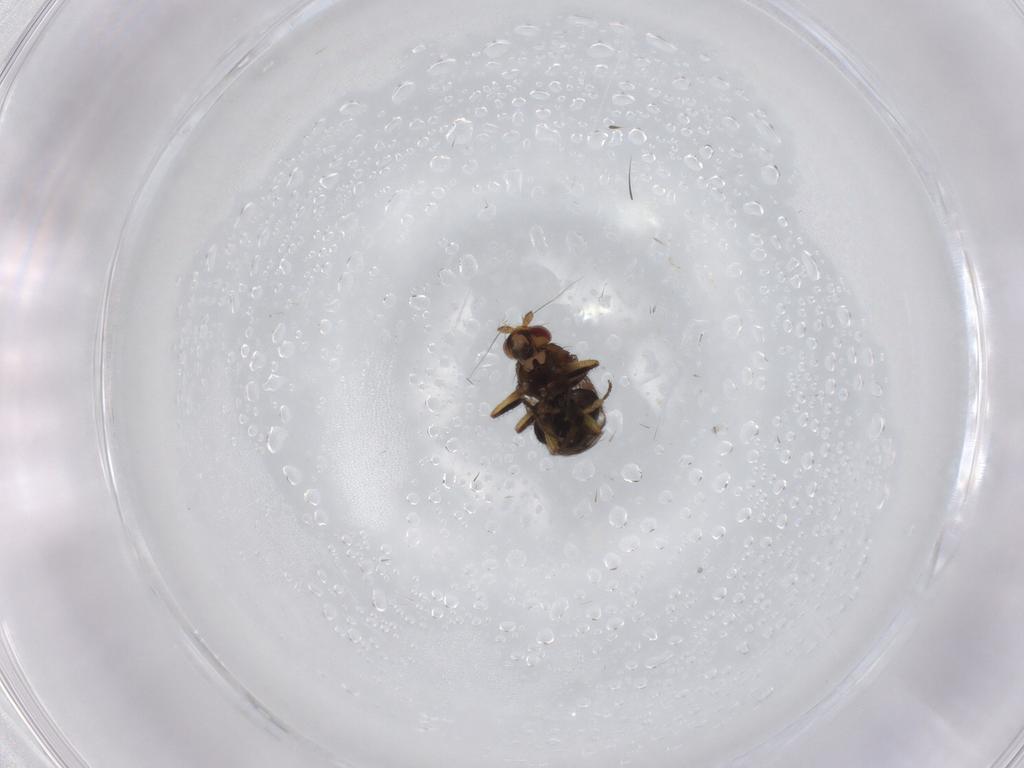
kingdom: Animalia
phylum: Arthropoda
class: Insecta
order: Diptera
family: Sphaeroceridae
